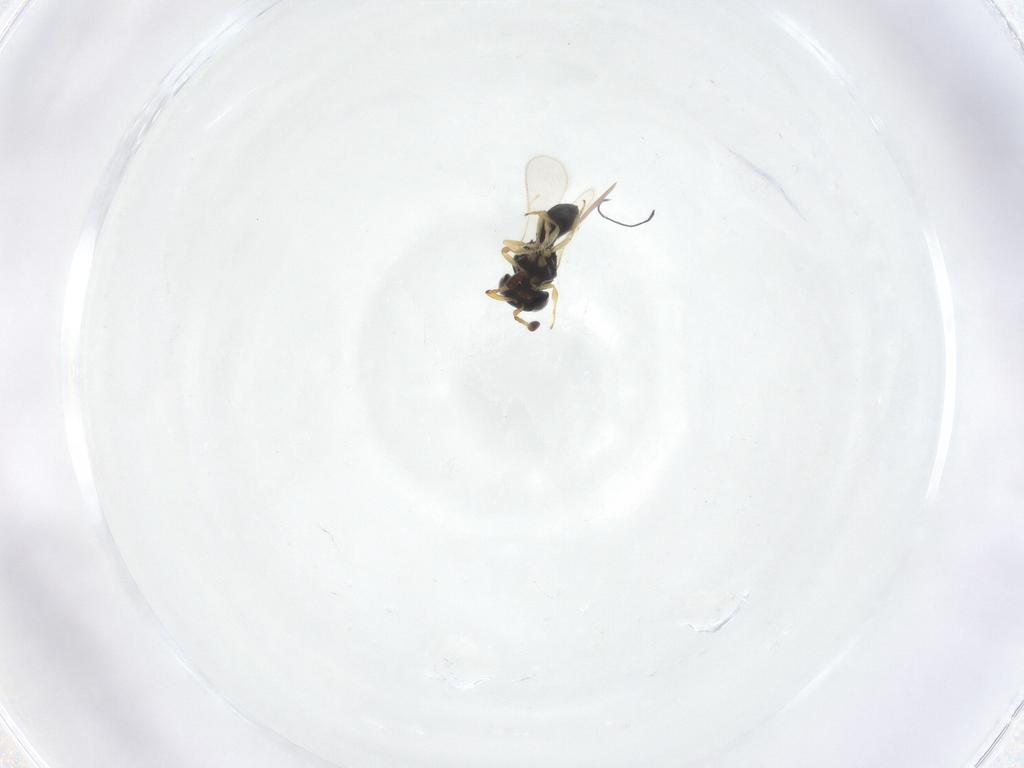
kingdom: Animalia
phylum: Arthropoda
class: Insecta
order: Hymenoptera
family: Scelionidae
